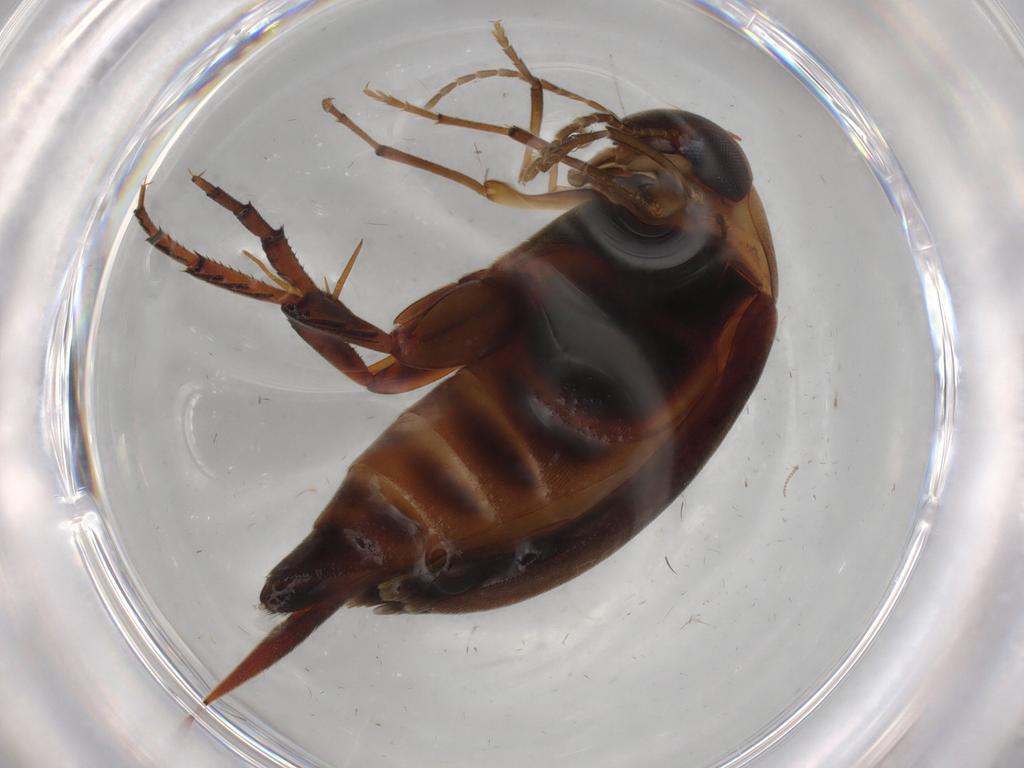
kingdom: Animalia
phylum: Arthropoda
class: Insecta
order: Coleoptera
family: Mordellidae
